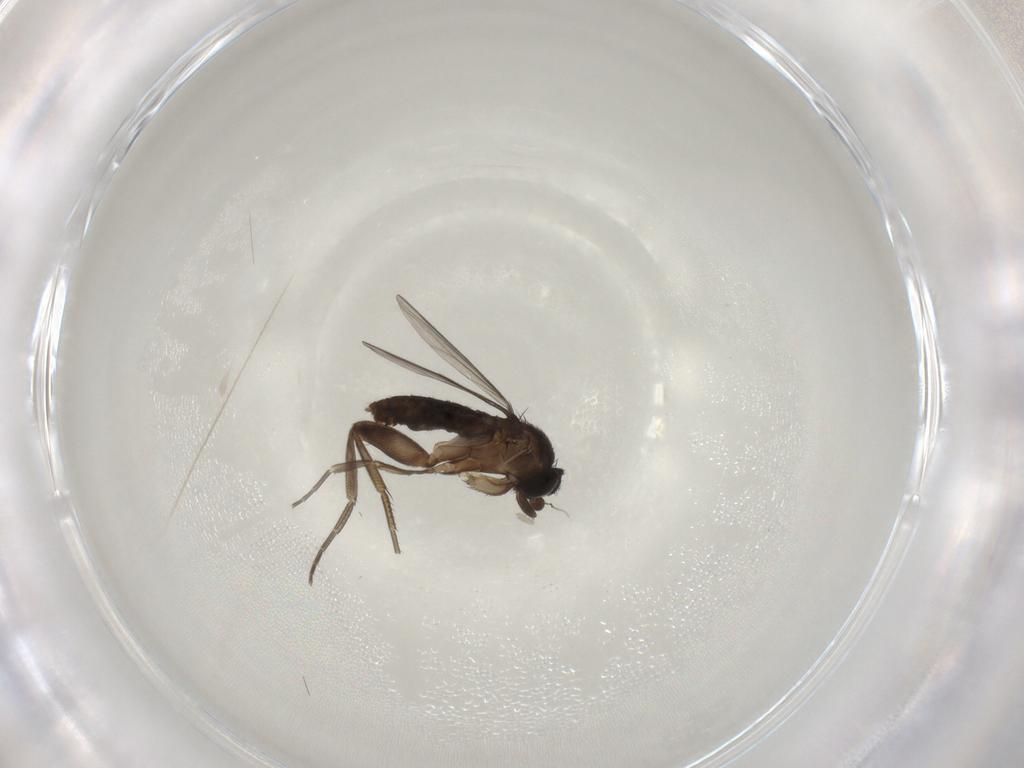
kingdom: Animalia
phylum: Arthropoda
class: Insecta
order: Diptera
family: Phoridae
